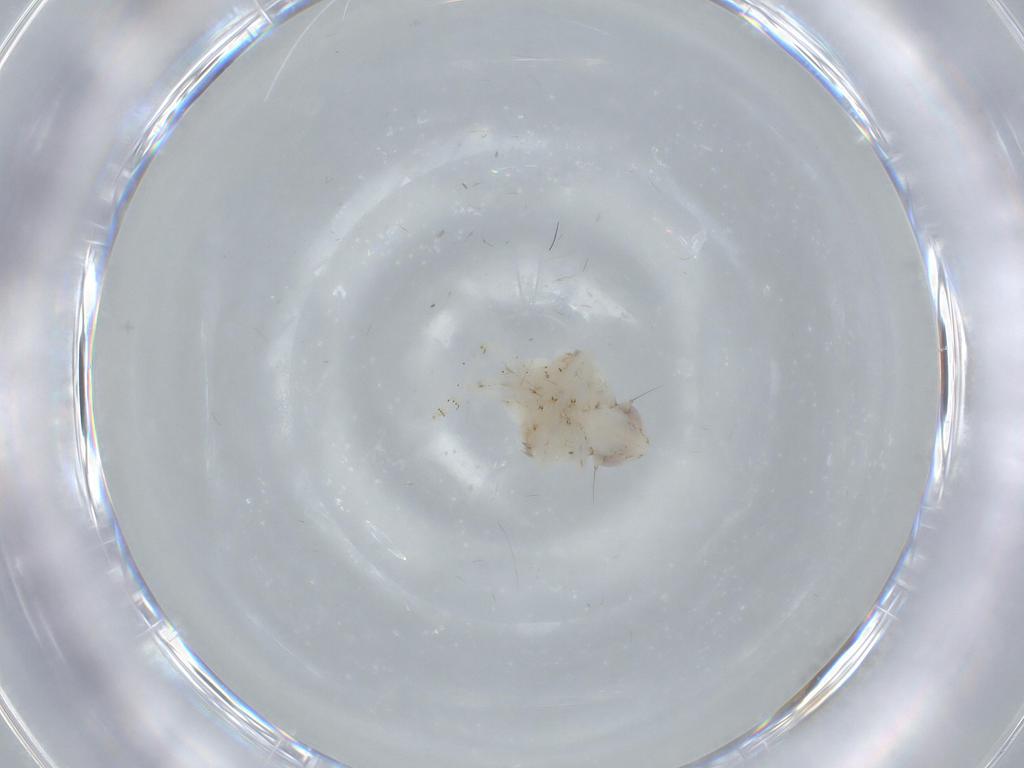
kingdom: Animalia
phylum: Arthropoda
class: Insecta
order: Hemiptera
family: Nogodinidae
